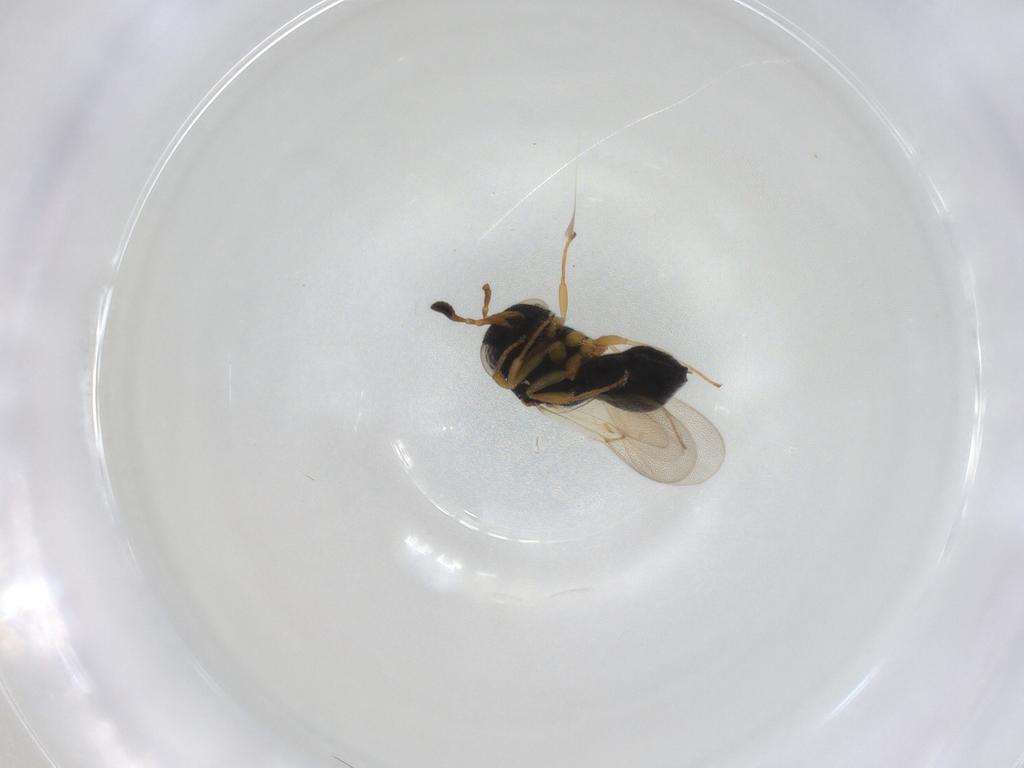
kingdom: Animalia
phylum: Arthropoda
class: Insecta
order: Hymenoptera
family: Scelionidae
